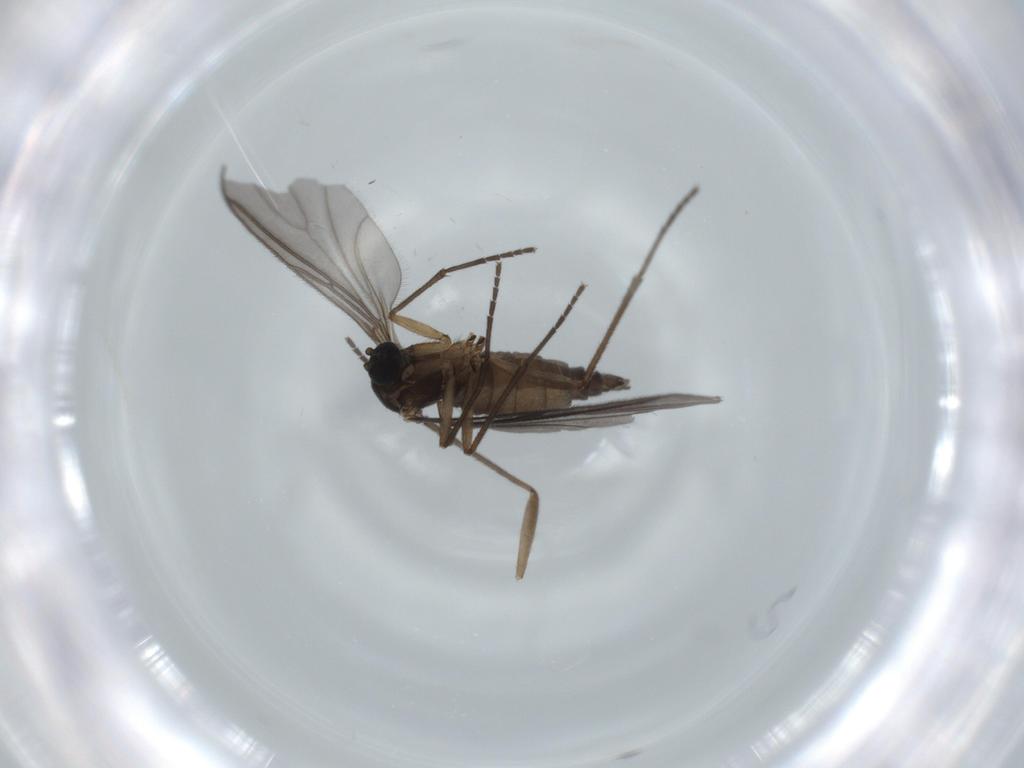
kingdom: Animalia
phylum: Arthropoda
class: Insecta
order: Diptera
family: Sciaridae
